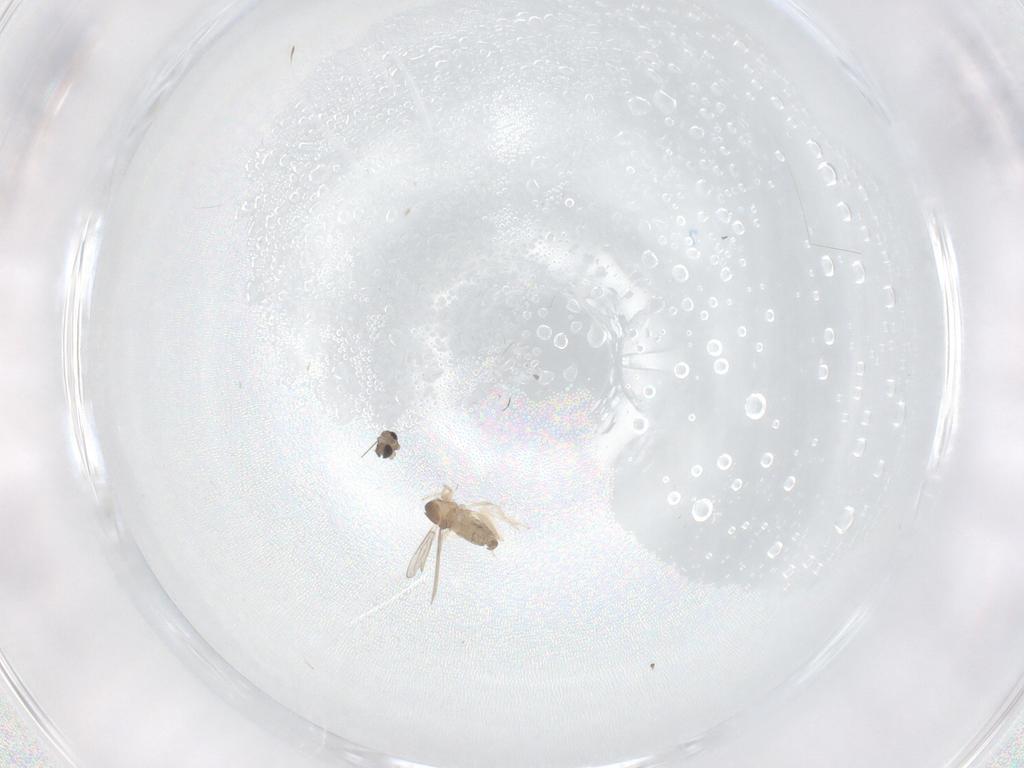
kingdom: Animalia
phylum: Arthropoda
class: Insecta
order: Diptera
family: Cecidomyiidae
